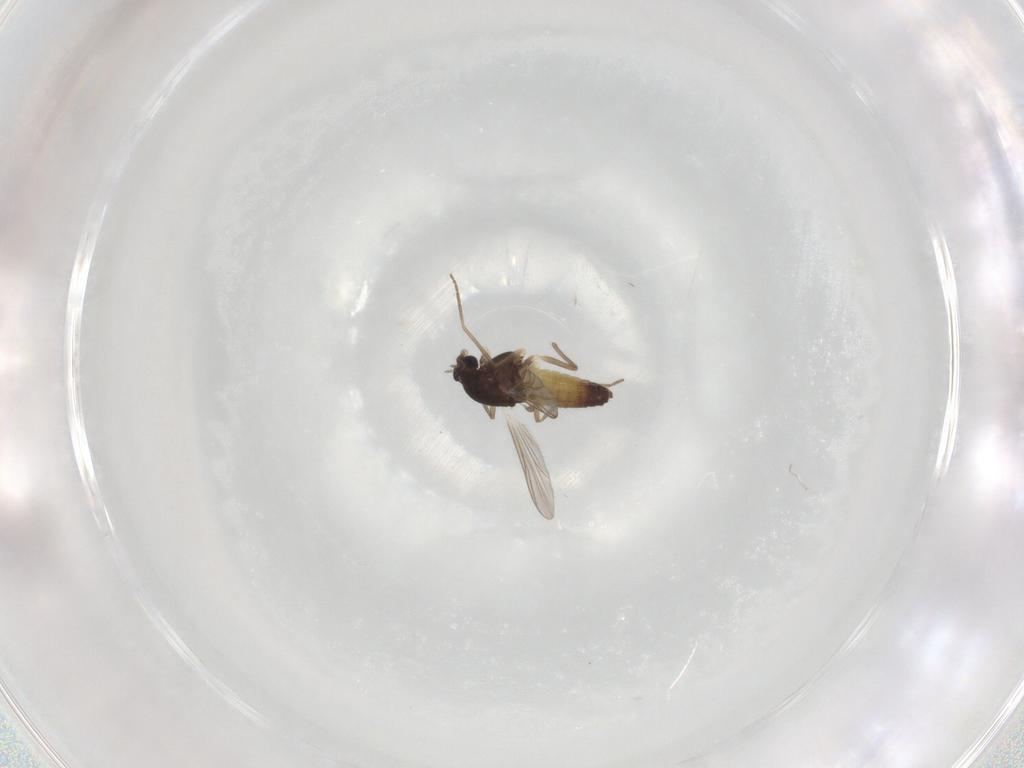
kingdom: Animalia
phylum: Arthropoda
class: Insecta
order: Diptera
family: Chironomidae
